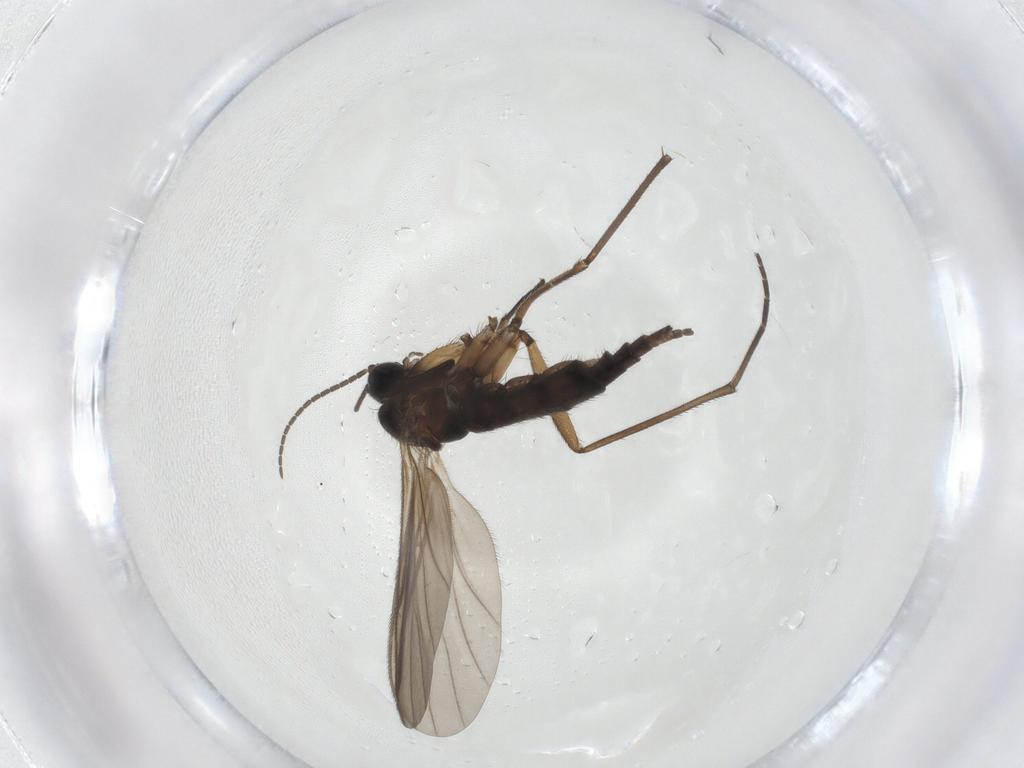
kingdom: Animalia
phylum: Arthropoda
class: Insecta
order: Diptera
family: Sciaridae
